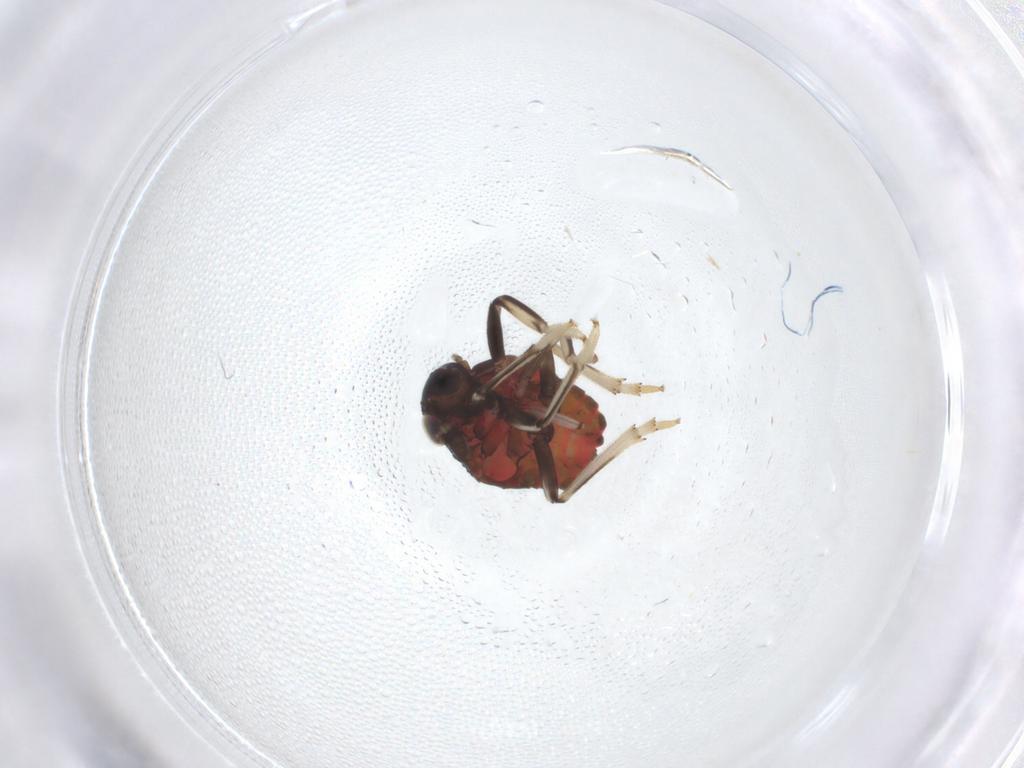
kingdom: Animalia
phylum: Arthropoda
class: Insecta
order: Hemiptera
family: Issidae
